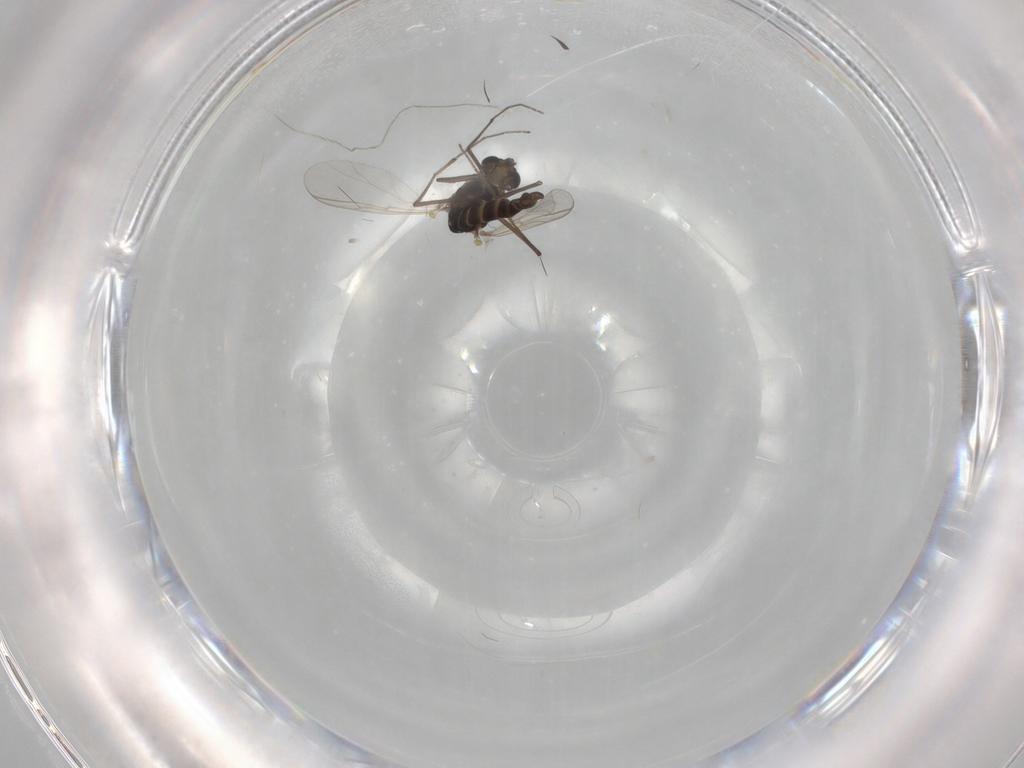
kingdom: Animalia
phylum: Arthropoda
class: Insecta
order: Diptera
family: Chironomidae
